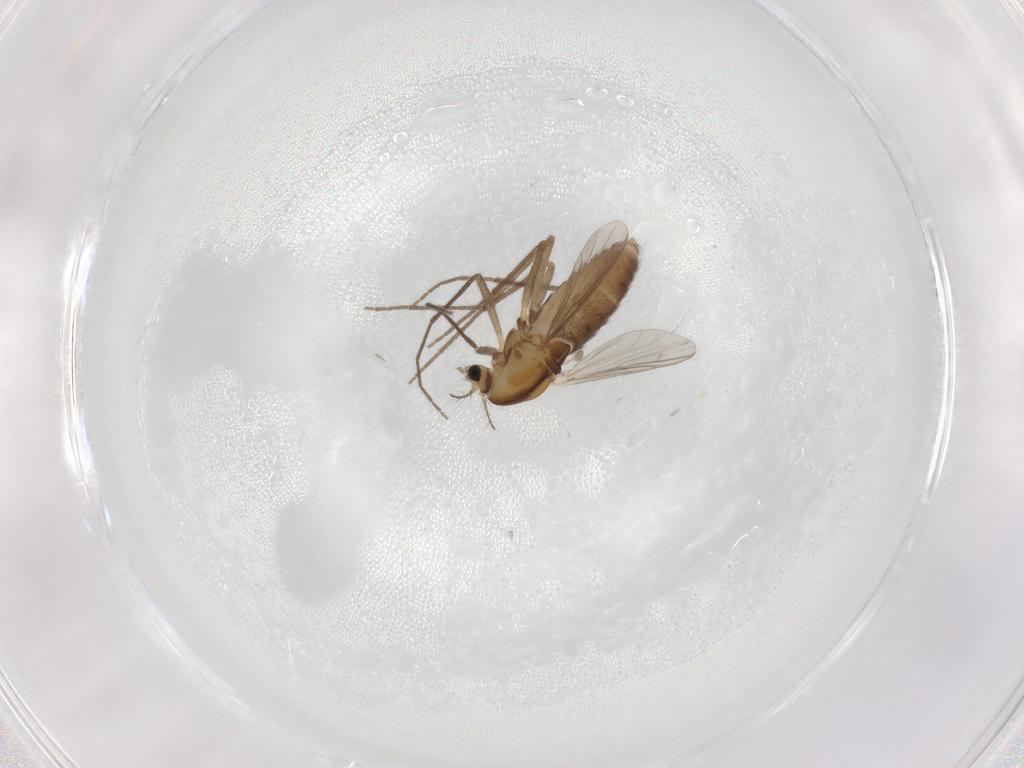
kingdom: Animalia
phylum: Arthropoda
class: Insecta
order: Diptera
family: Chironomidae
